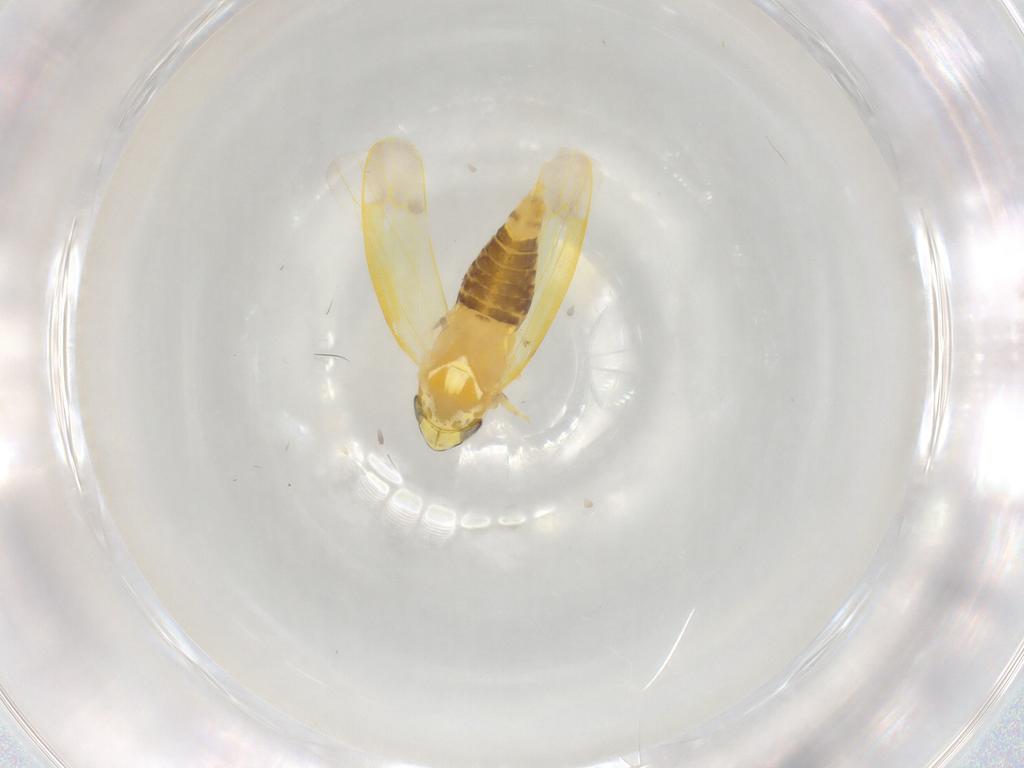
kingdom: Animalia
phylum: Arthropoda
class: Insecta
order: Hemiptera
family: Cicadellidae
